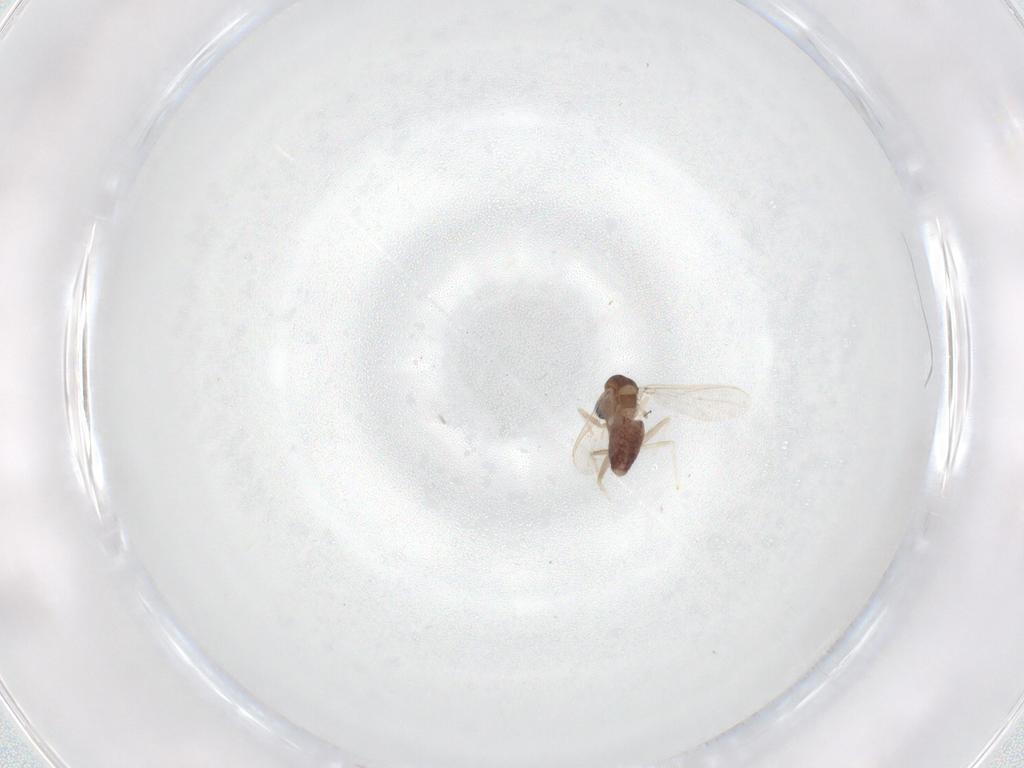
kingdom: Animalia
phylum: Arthropoda
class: Insecta
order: Diptera
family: Chironomidae
